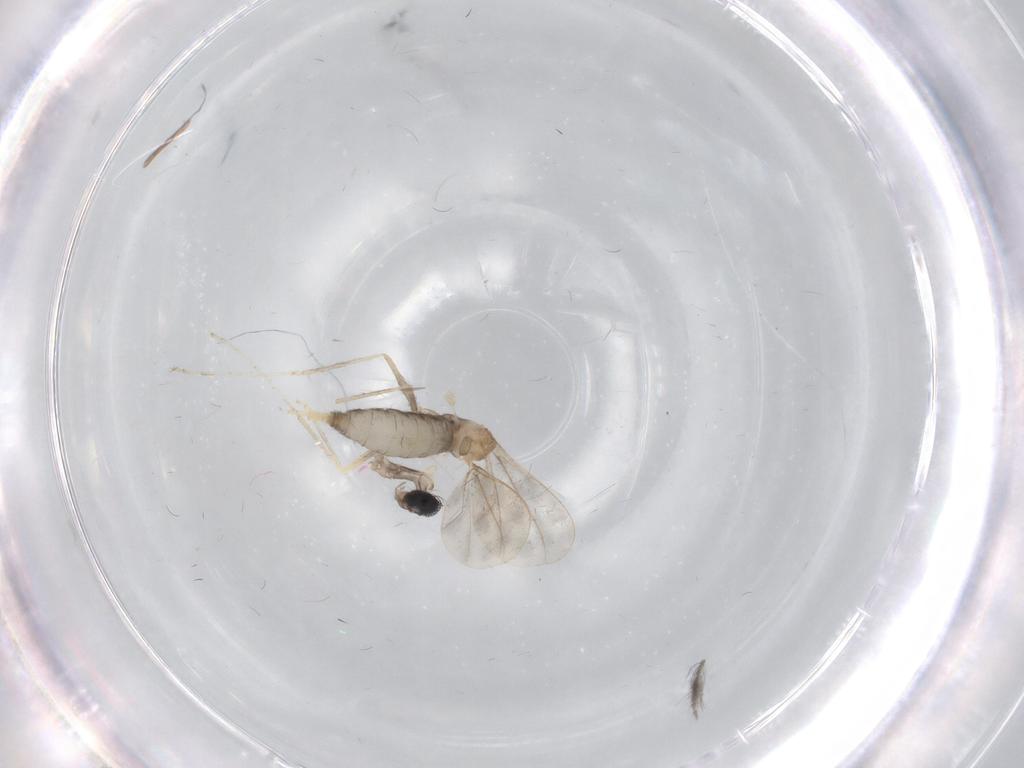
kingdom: Animalia
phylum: Arthropoda
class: Insecta
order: Diptera
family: Cecidomyiidae
